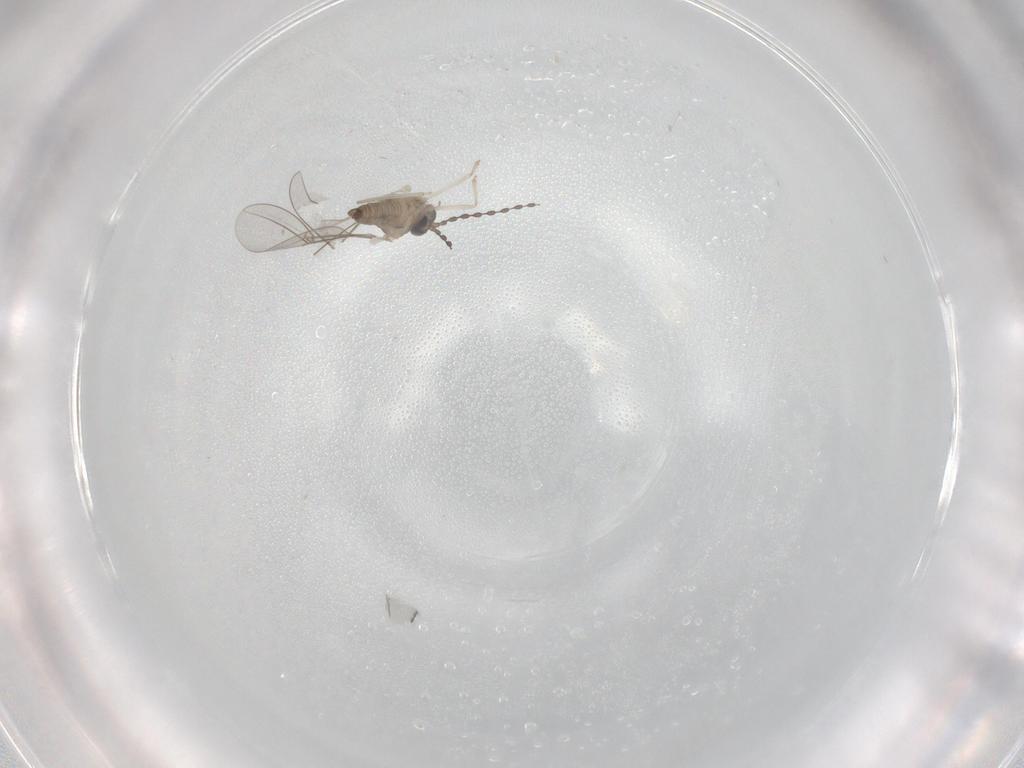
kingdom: Animalia
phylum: Arthropoda
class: Insecta
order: Diptera
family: Cecidomyiidae
